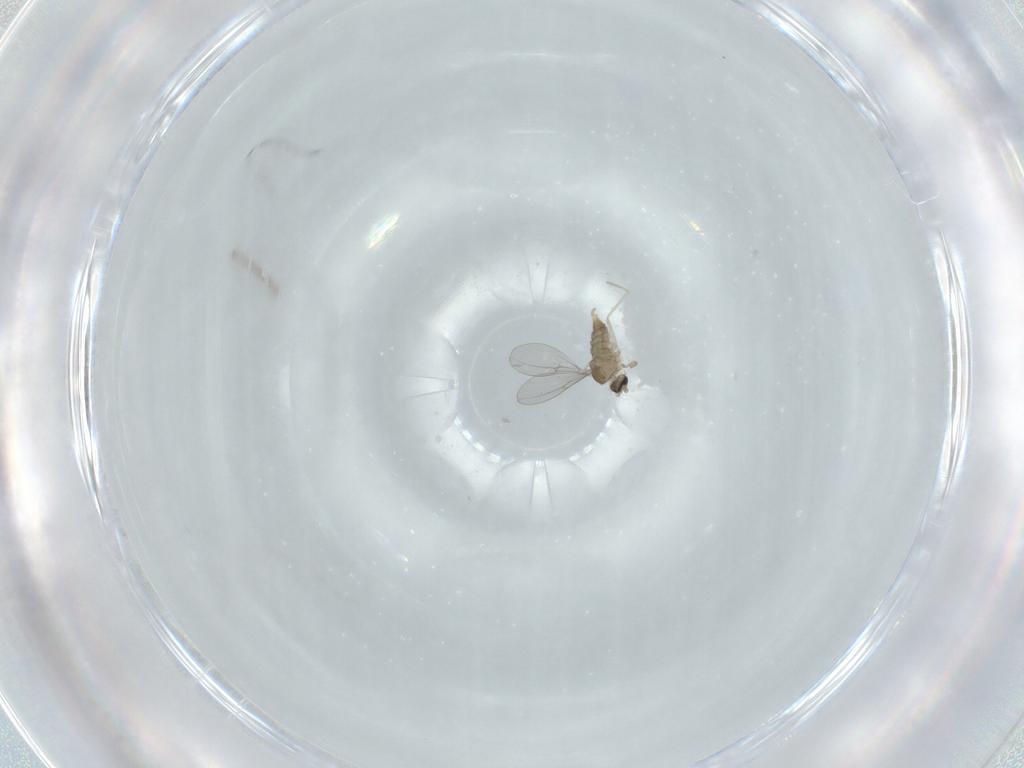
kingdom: Animalia
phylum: Arthropoda
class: Insecta
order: Diptera
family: Cecidomyiidae
